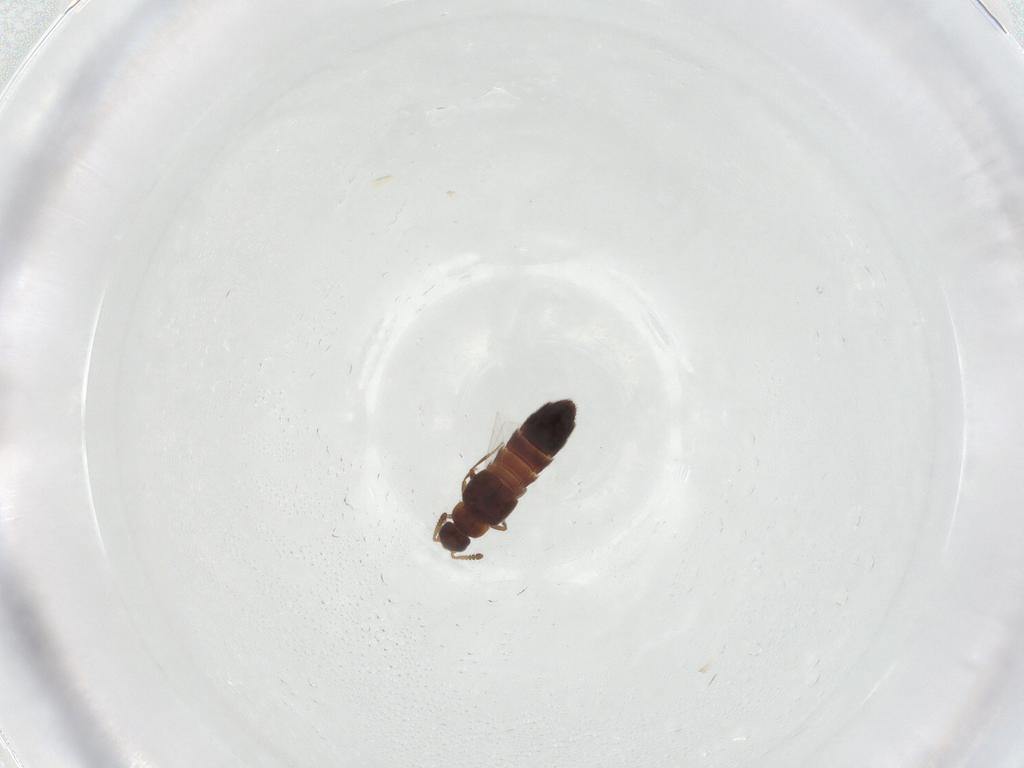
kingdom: Animalia
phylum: Arthropoda
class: Insecta
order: Coleoptera
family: Staphylinidae
